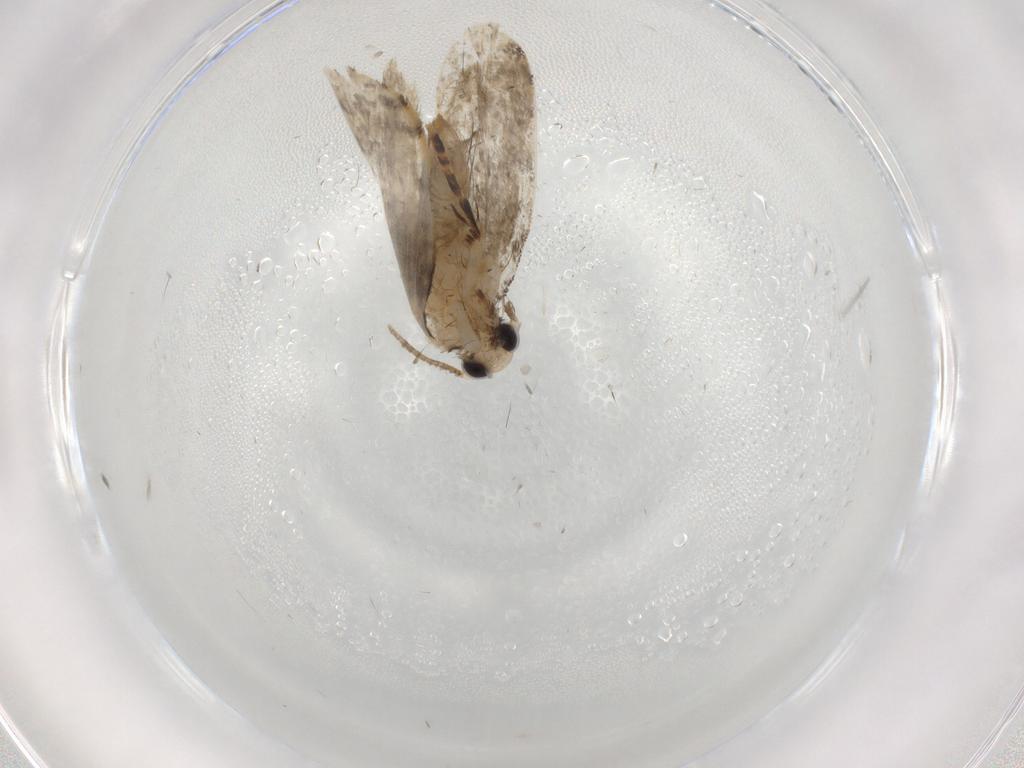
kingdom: Animalia
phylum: Arthropoda
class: Insecta
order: Lepidoptera
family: Psychidae
